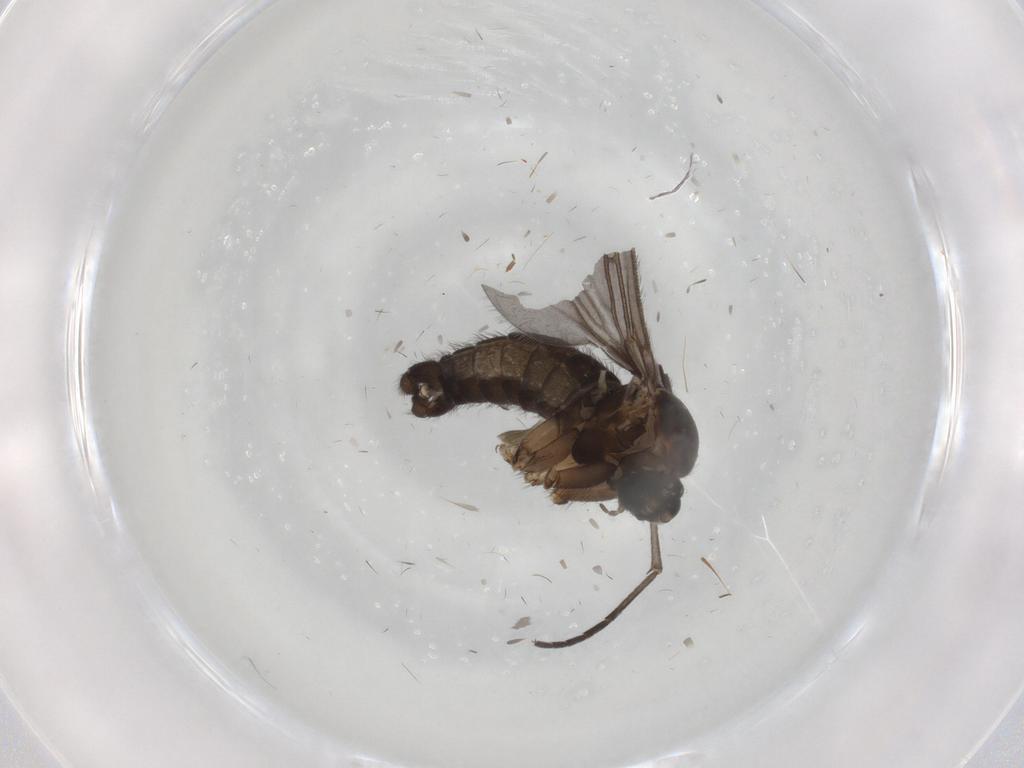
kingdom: Animalia
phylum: Arthropoda
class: Insecta
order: Diptera
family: Sciaridae
